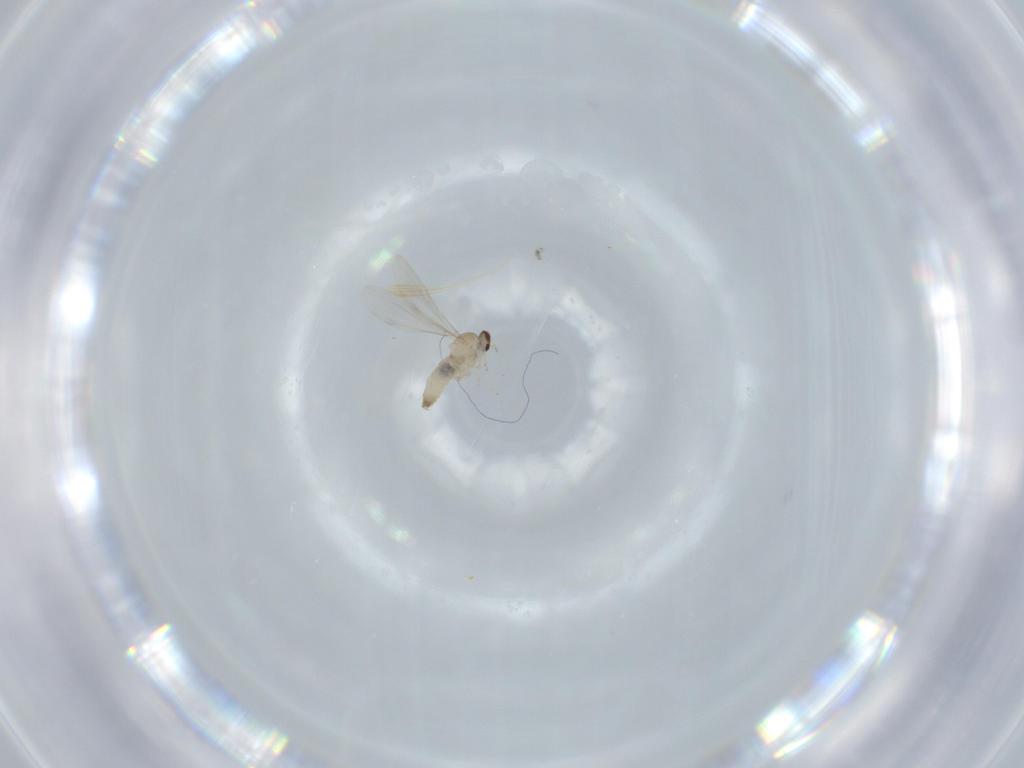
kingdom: Animalia
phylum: Arthropoda
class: Insecta
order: Diptera
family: Cecidomyiidae
